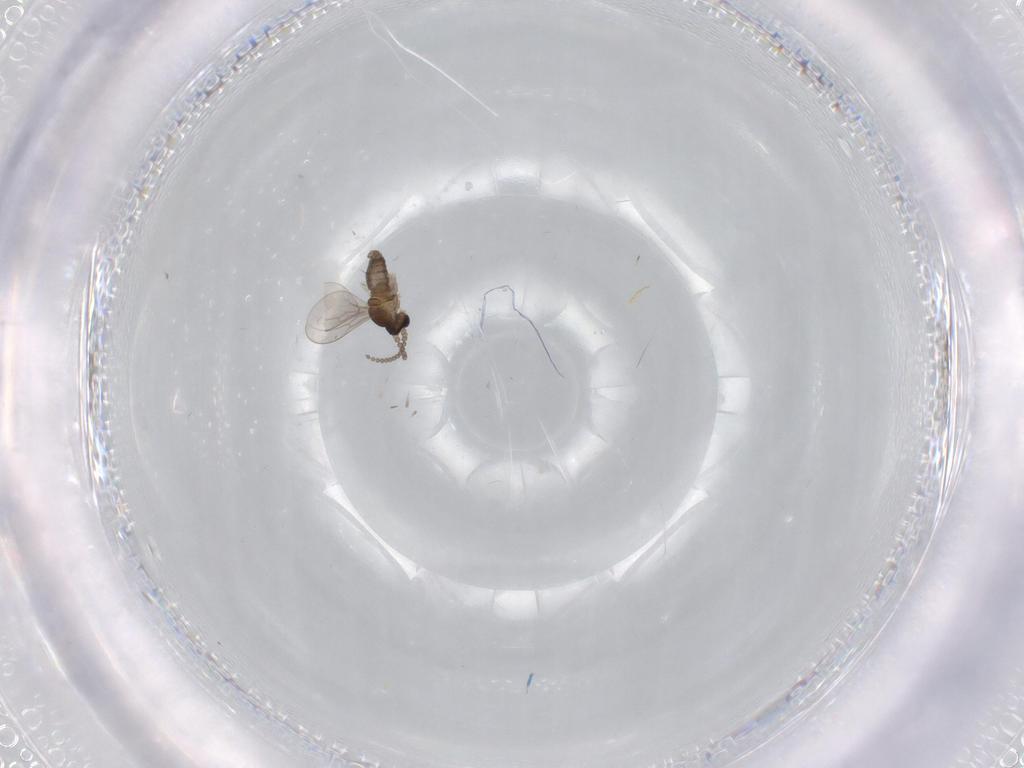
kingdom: Animalia
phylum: Arthropoda
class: Insecta
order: Diptera
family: Cecidomyiidae
